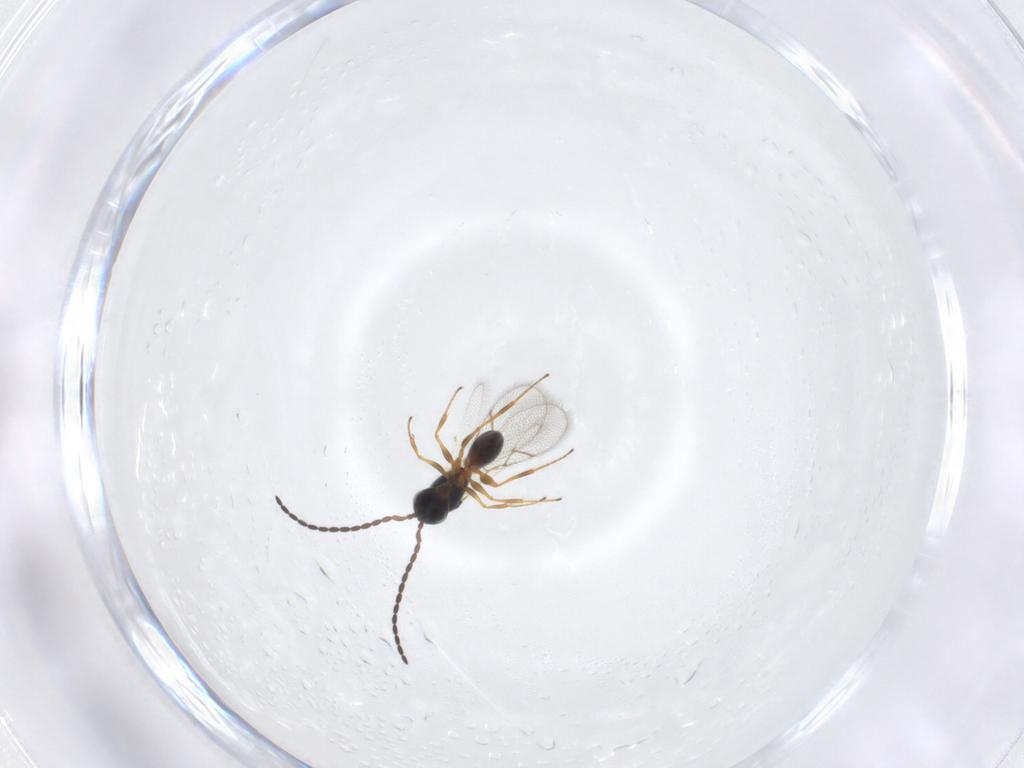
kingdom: Animalia
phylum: Arthropoda
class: Insecta
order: Hymenoptera
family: Figitidae
